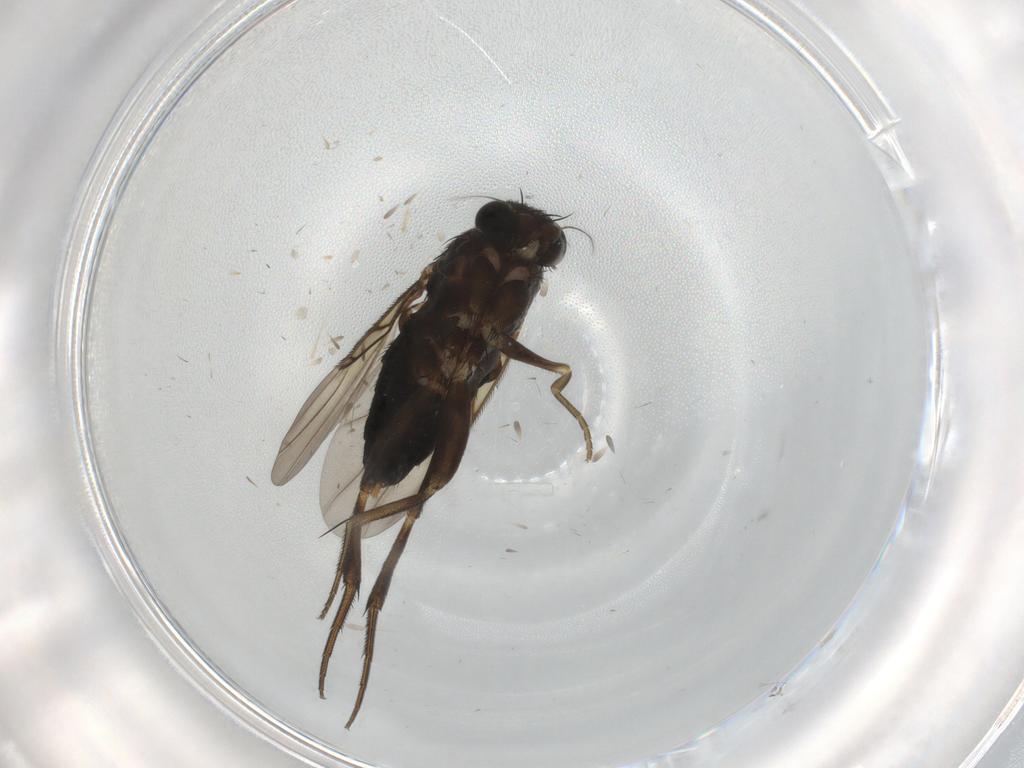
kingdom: Animalia
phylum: Arthropoda
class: Insecta
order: Diptera
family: Phoridae
